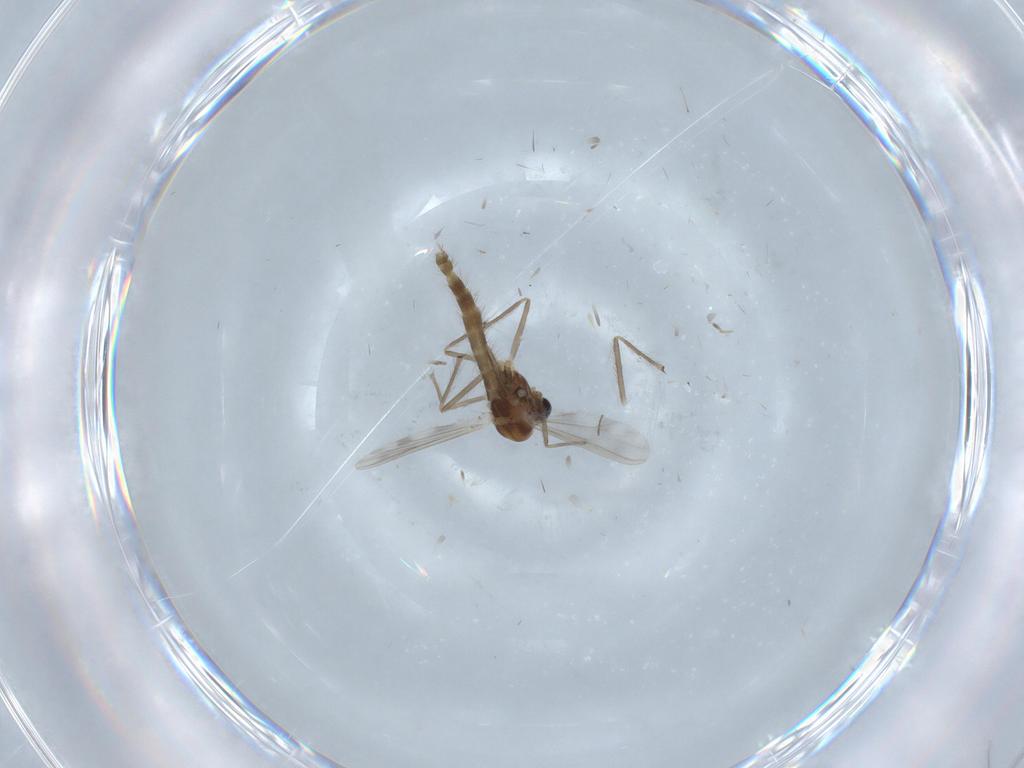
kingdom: Animalia
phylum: Arthropoda
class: Insecta
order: Diptera
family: Chironomidae
